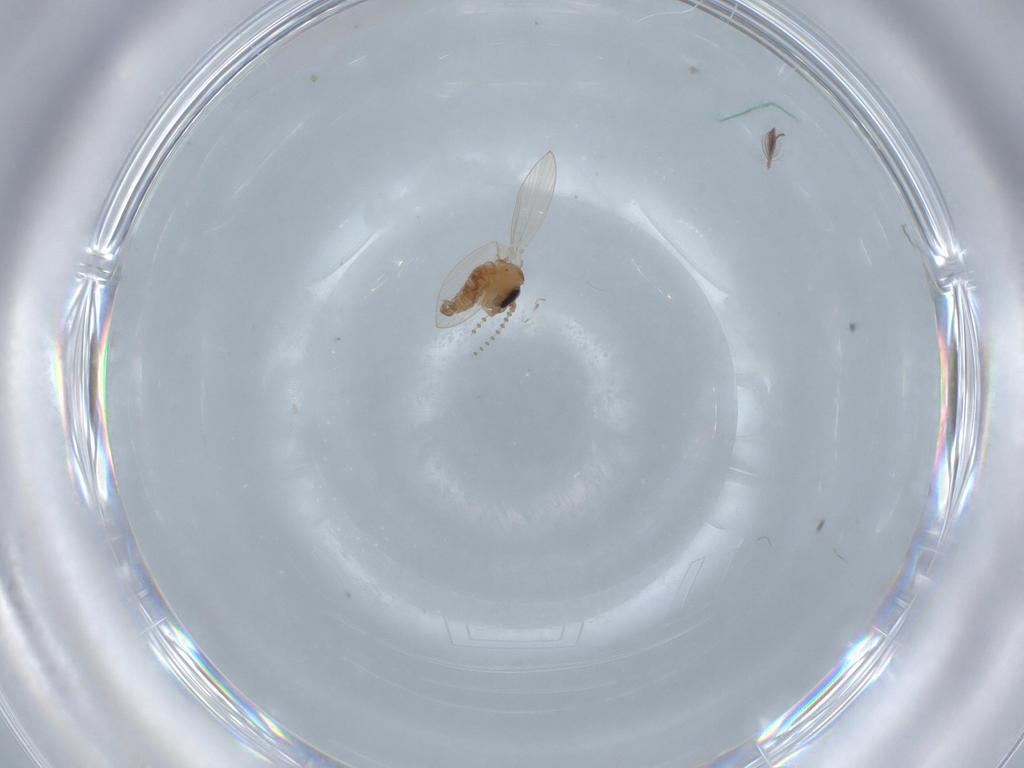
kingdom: Animalia
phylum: Arthropoda
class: Insecta
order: Diptera
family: Psychodidae
